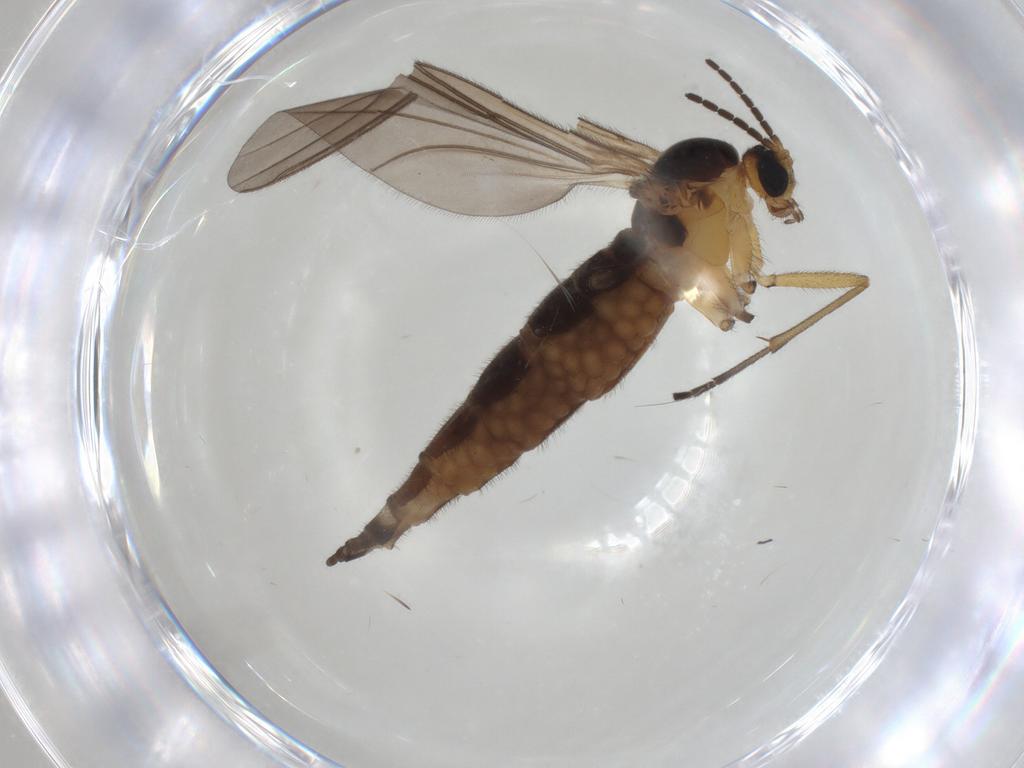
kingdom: Animalia
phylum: Arthropoda
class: Insecta
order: Diptera
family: Sciaridae
